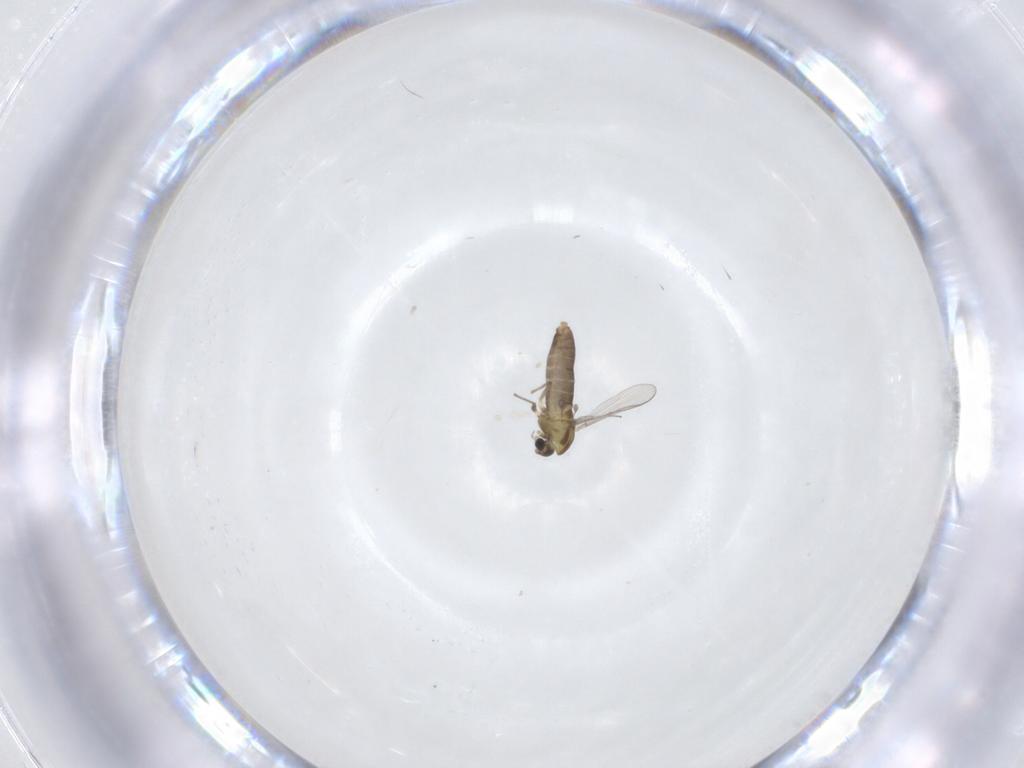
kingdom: Animalia
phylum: Arthropoda
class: Insecta
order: Diptera
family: Chironomidae
